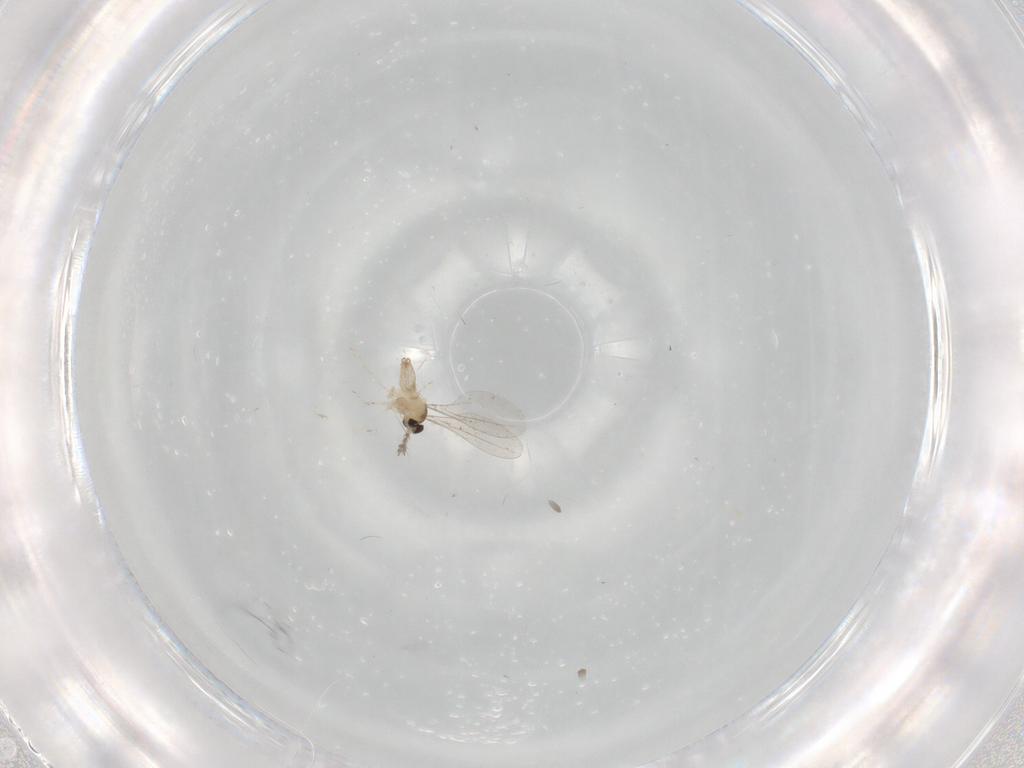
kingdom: Animalia
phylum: Arthropoda
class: Insecta
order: Diptera
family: Cecidomyiidae
